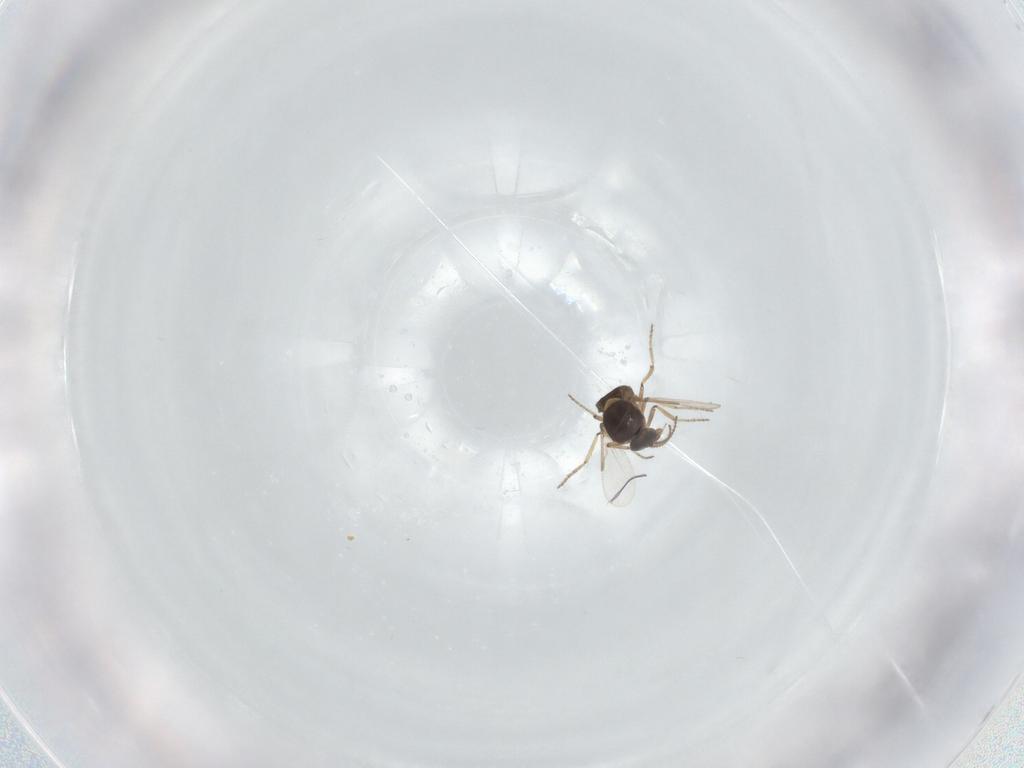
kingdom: Animalia
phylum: Arthropoda
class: Insecta
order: Diptera
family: Ceratopogonidae
